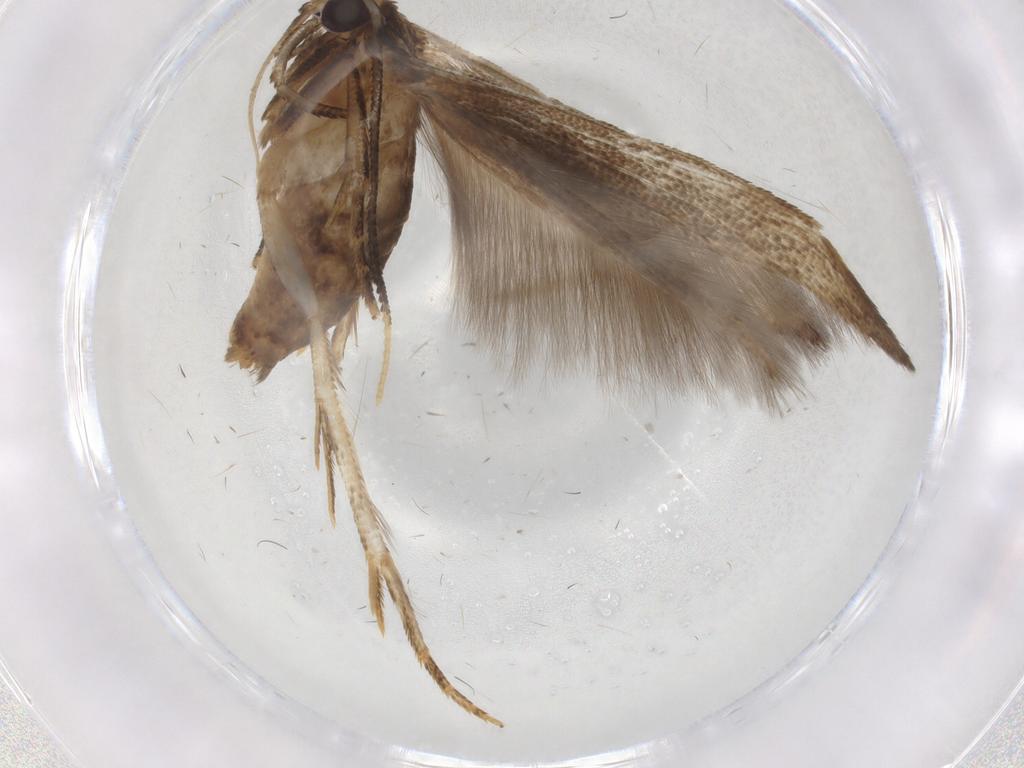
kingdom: Animalia
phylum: Arthropoda
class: Insecta
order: Lepidoptera
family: Cosmopterigidae
